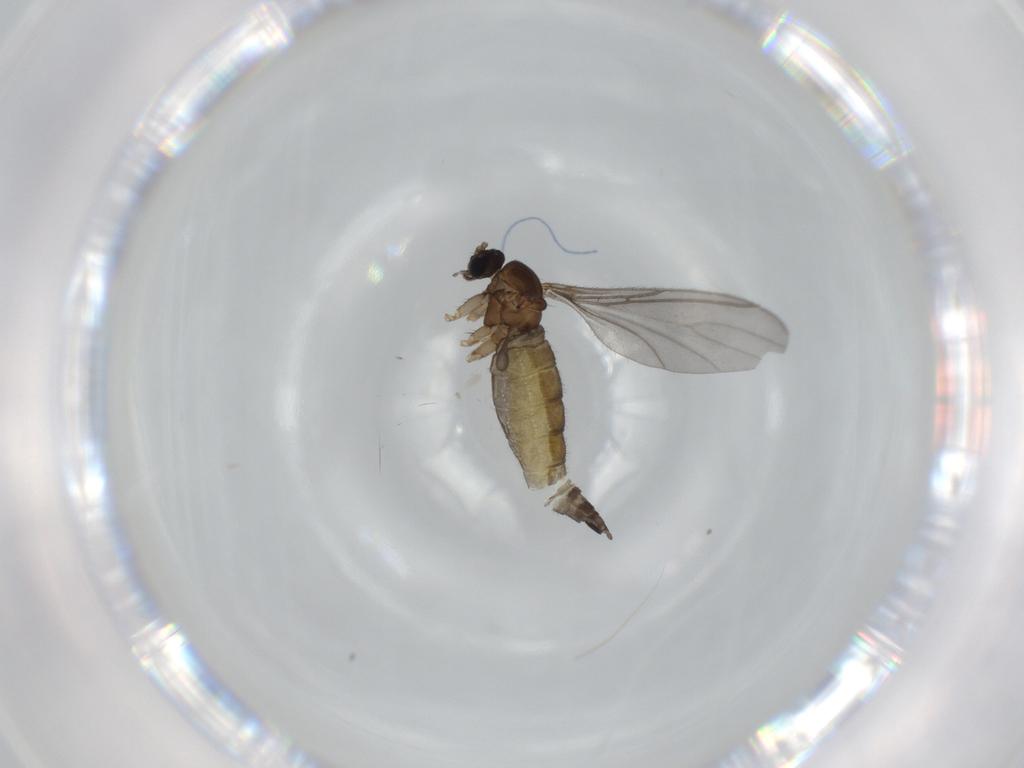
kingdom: Animalia
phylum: Arthropoda
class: Insecta
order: Diptera
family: Sciaridae
